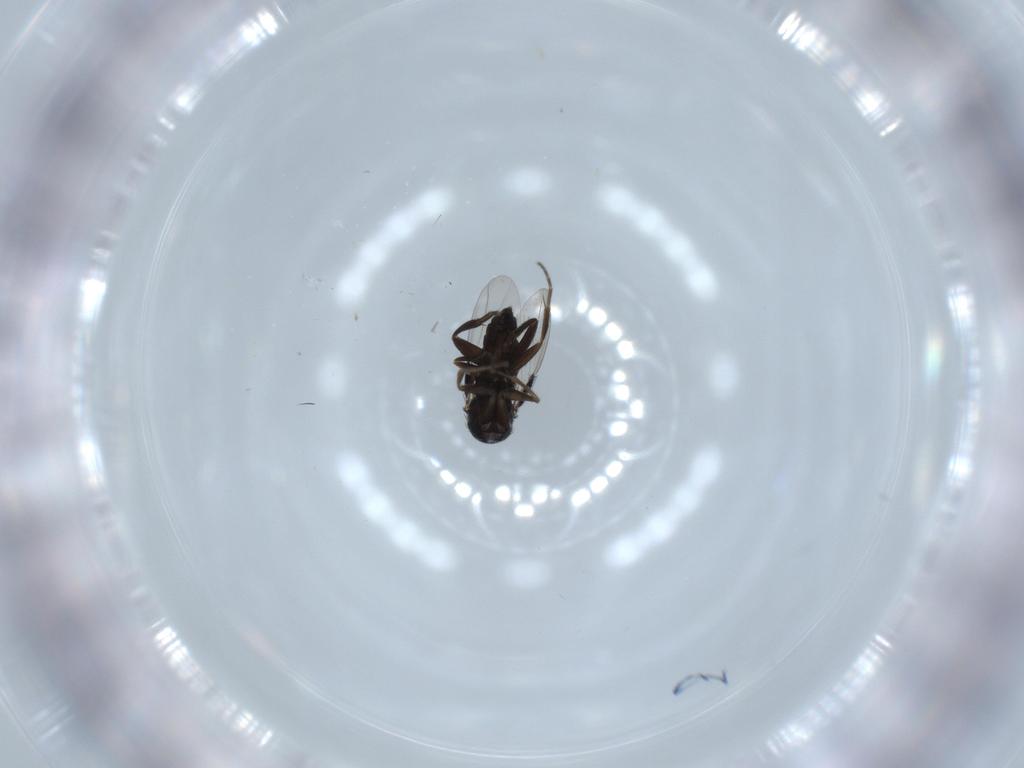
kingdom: Animalia
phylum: Arthropoda
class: Insecta
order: Diptera
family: Phoridae
